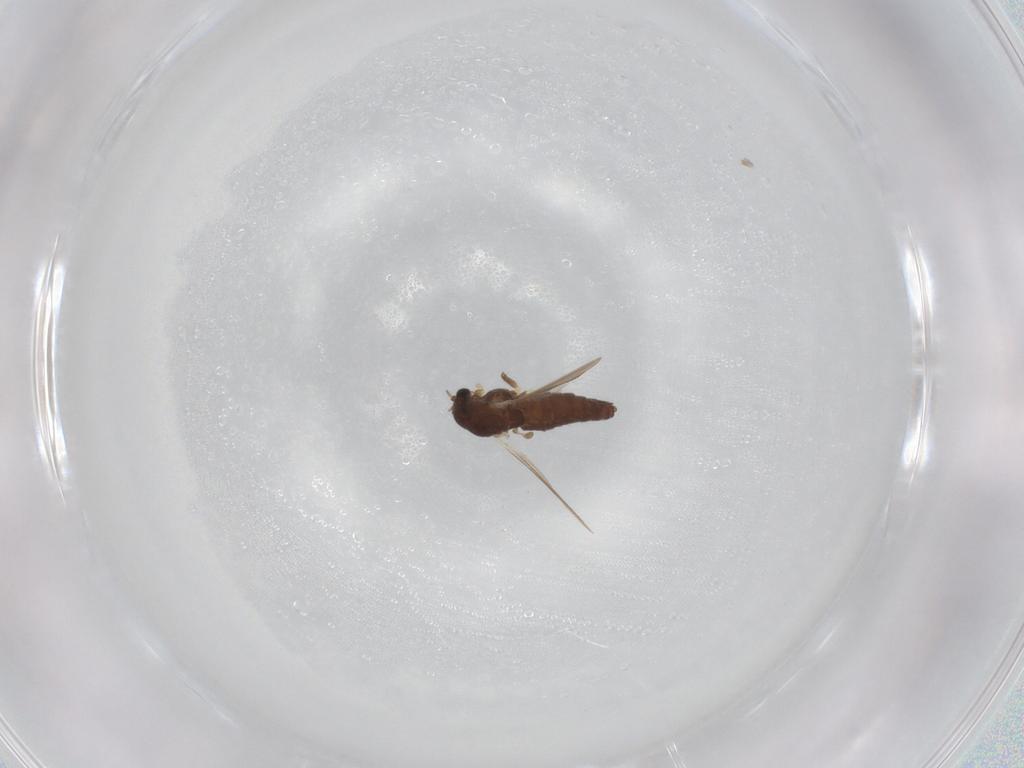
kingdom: Animalia
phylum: Arthropoda
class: Insecta
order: Diptera
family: Chironomidae
